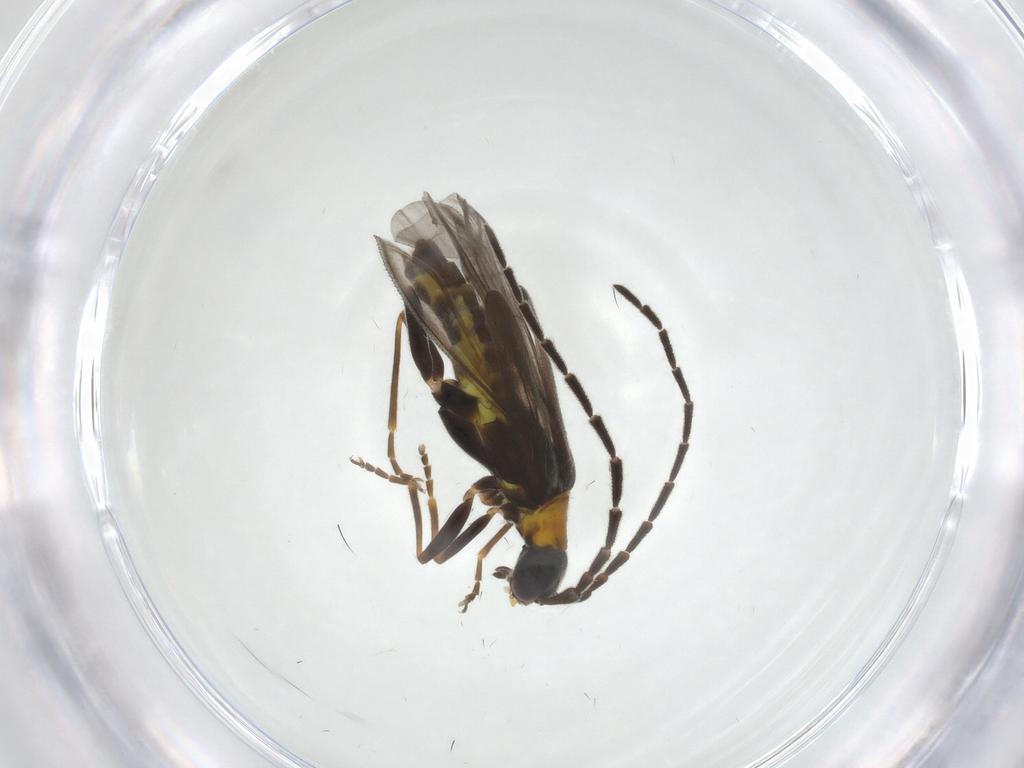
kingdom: Animalia
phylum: Arthropoda
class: Insecta
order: Coleoptera
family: Cantharidae
